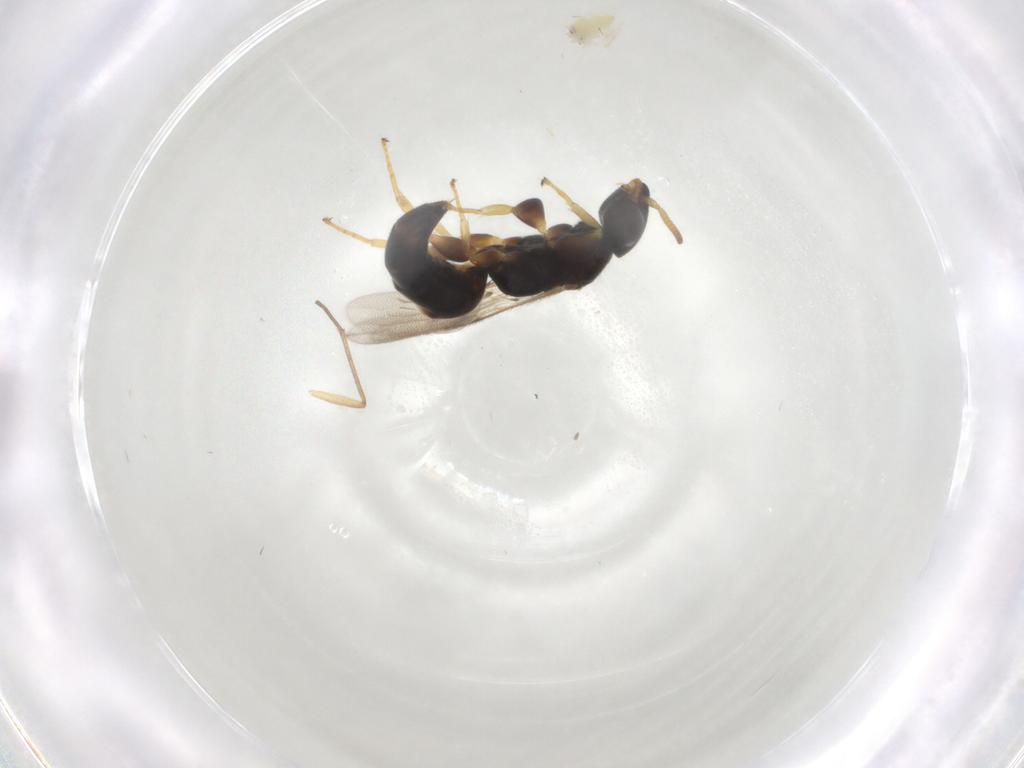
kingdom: Animalia
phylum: Arthropoda
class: Insecta
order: Hymenoptera
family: Bethylidae
